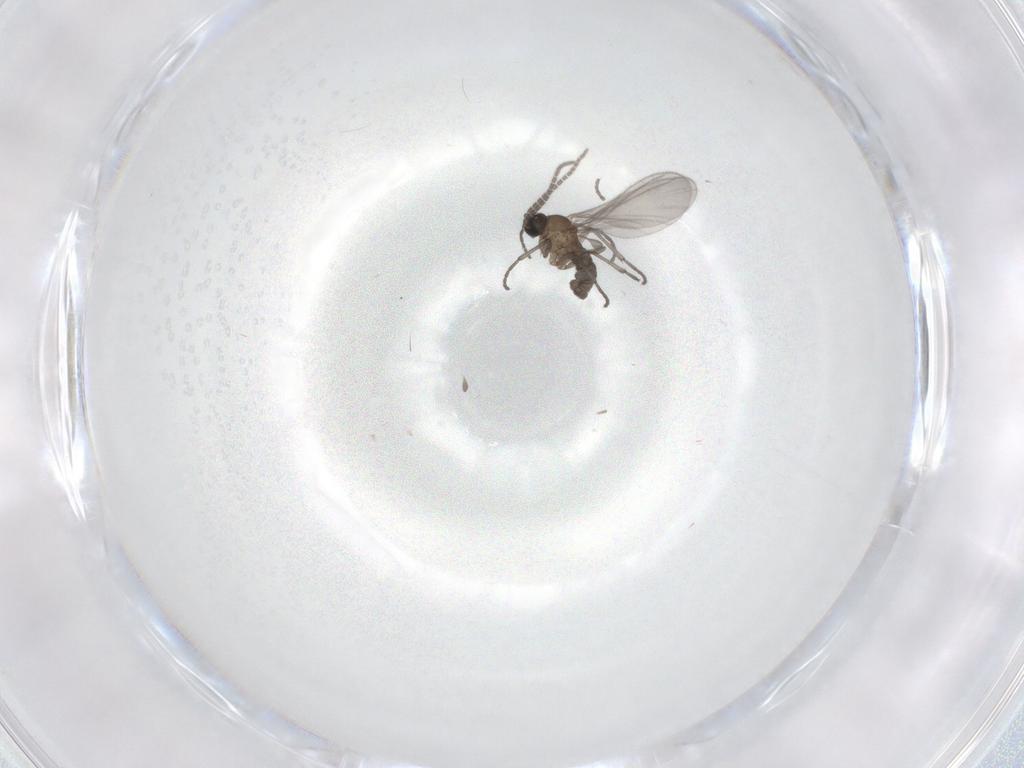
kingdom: Animalia
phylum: Arthropoda
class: Insecta
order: Diptera
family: Sciaridae
